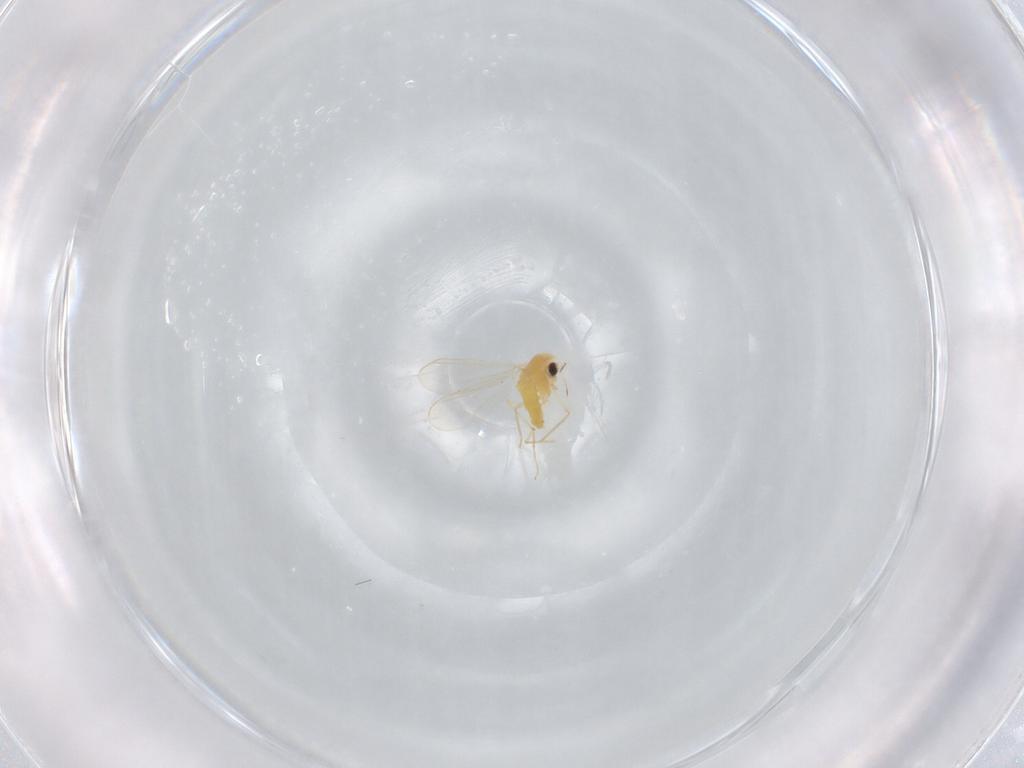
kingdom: Animalia
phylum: Arthropoda
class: Insecta
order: Diptera
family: Chironomidae
